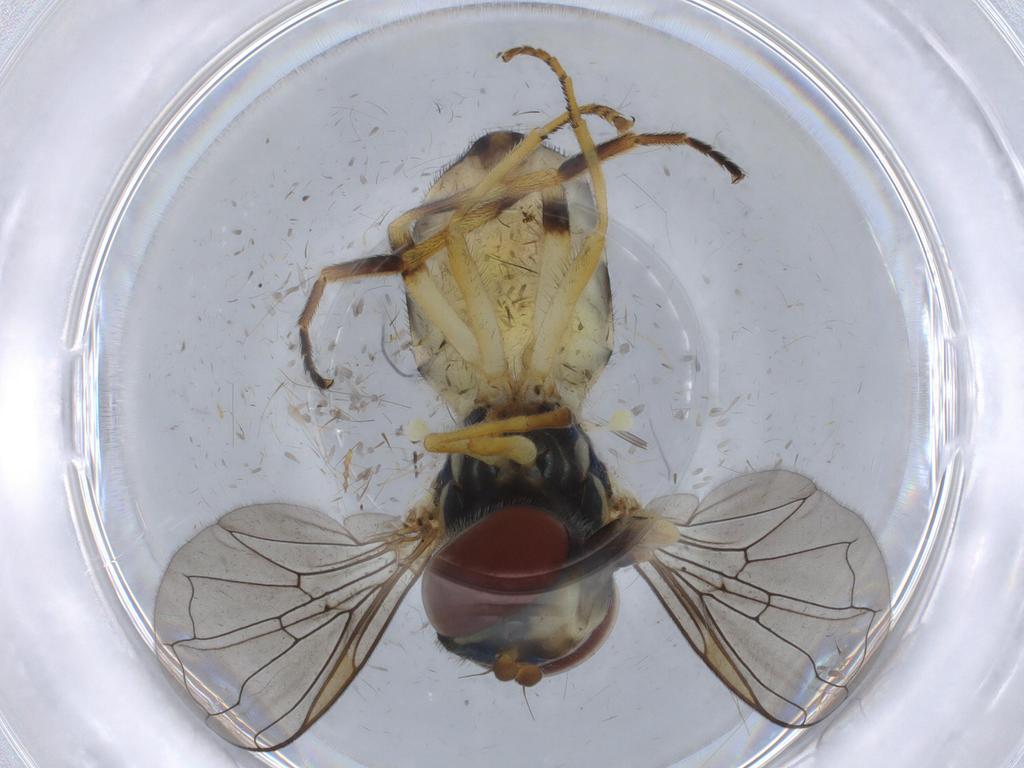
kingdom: Animalia
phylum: Arthropoda
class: Insecta
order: Diptera
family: Syrphidae
